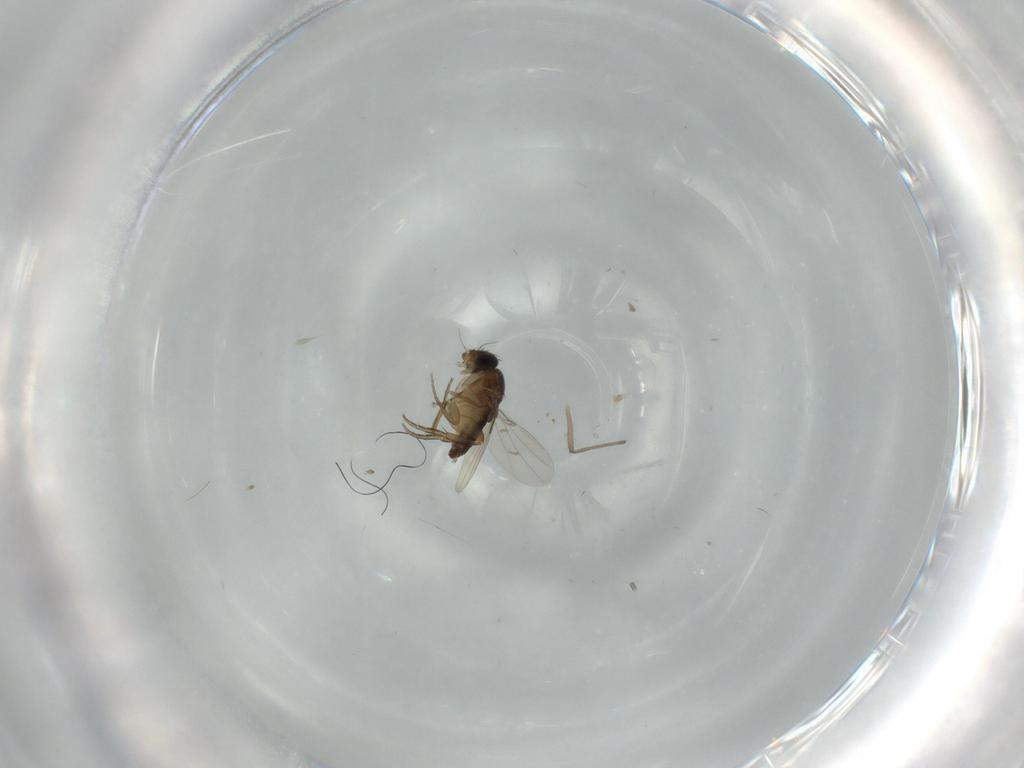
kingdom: Animalia
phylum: Arthropoda
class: Insecta
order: Diptera
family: Chironomidae
